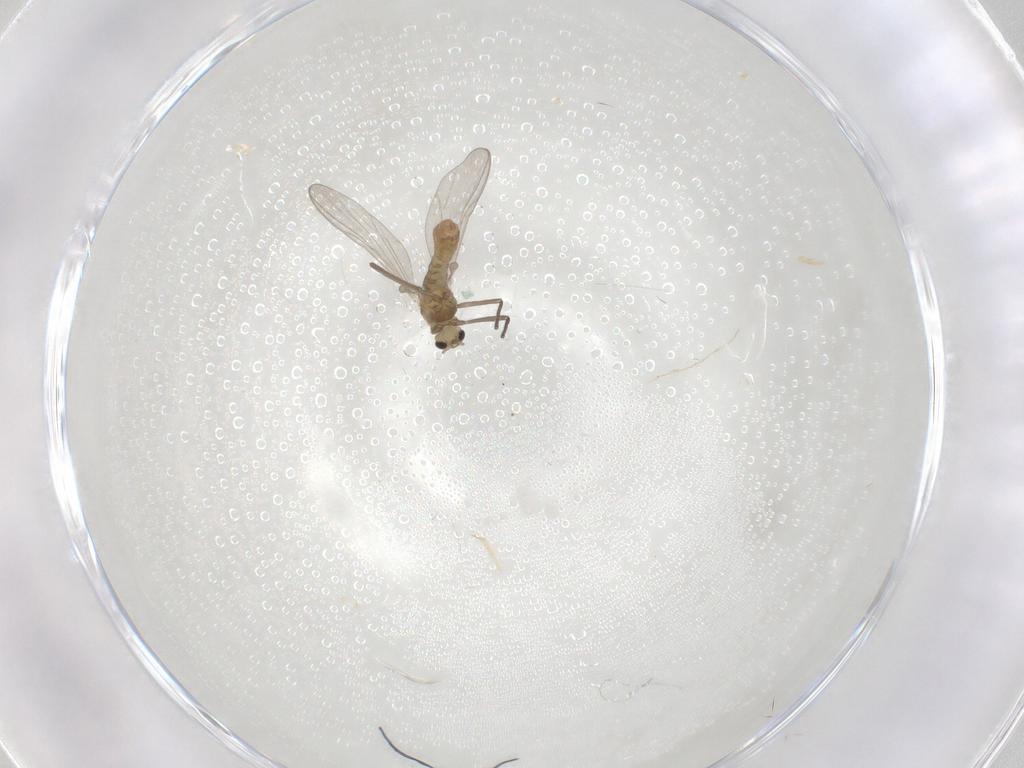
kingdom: Animalia
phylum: Arthropoda
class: Insecta
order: Diptera
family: Chironomidae
